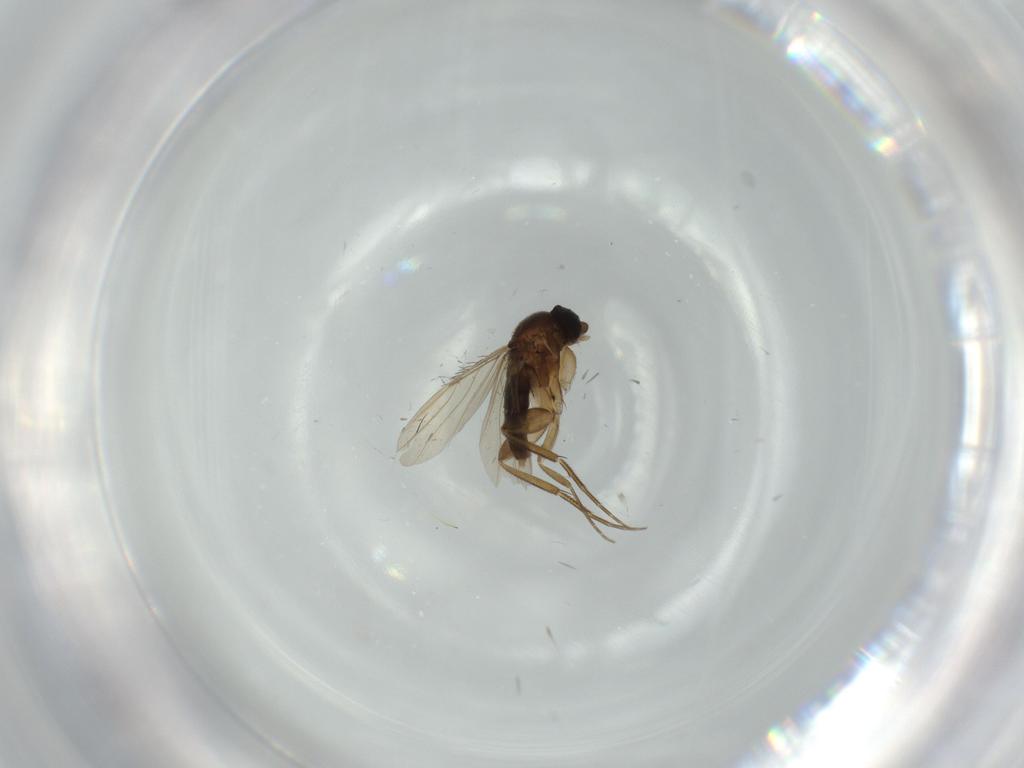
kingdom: Animalia
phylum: Arthropoda
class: Insecta
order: Diptera
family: Phoridae
